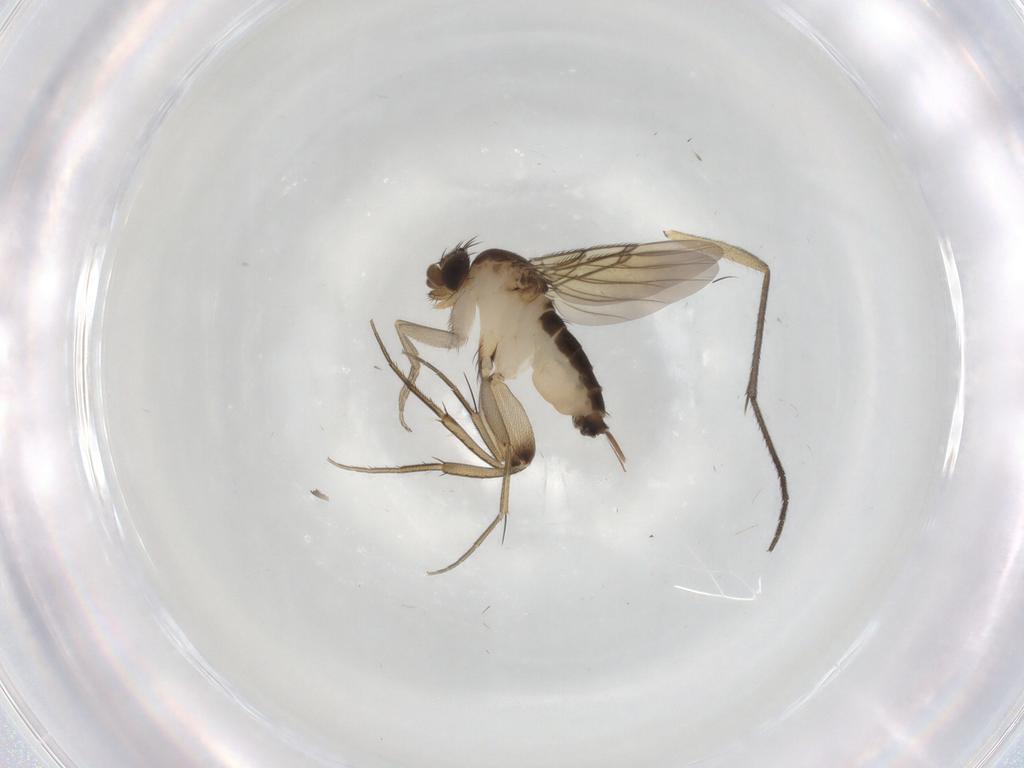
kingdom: Animalia
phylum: Arthropoda
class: Insecta
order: Diptera
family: Phoridae
